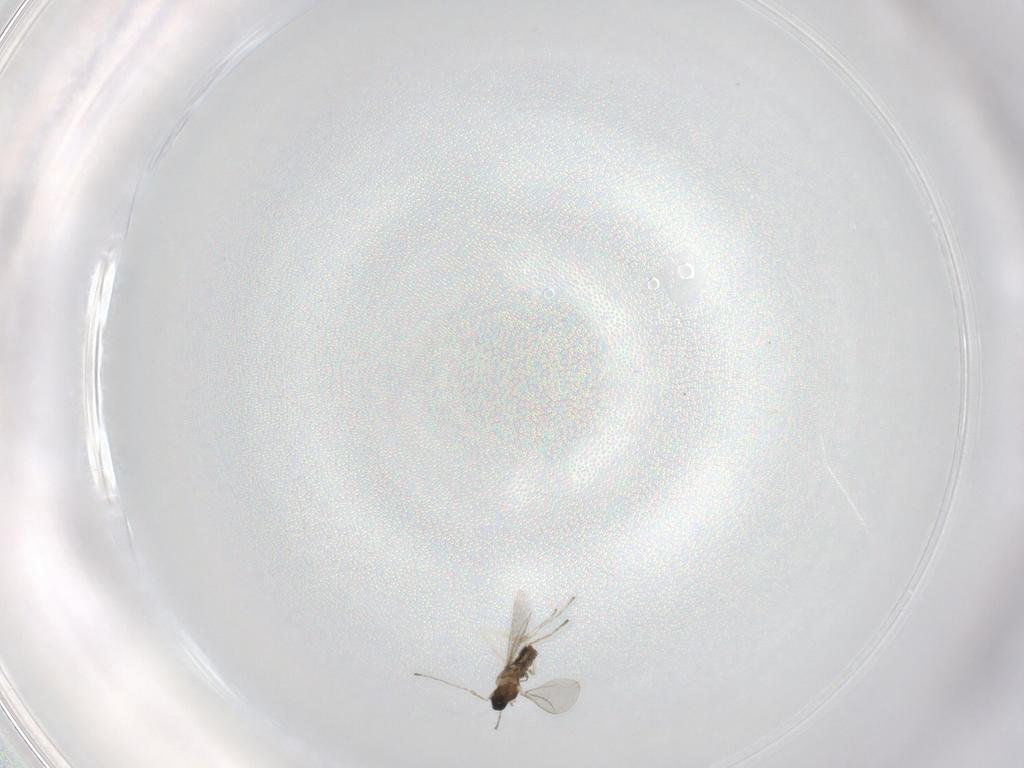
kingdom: Animalia
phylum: Arthropoda
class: Insecta
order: Diptera
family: Cecidomyiidae
